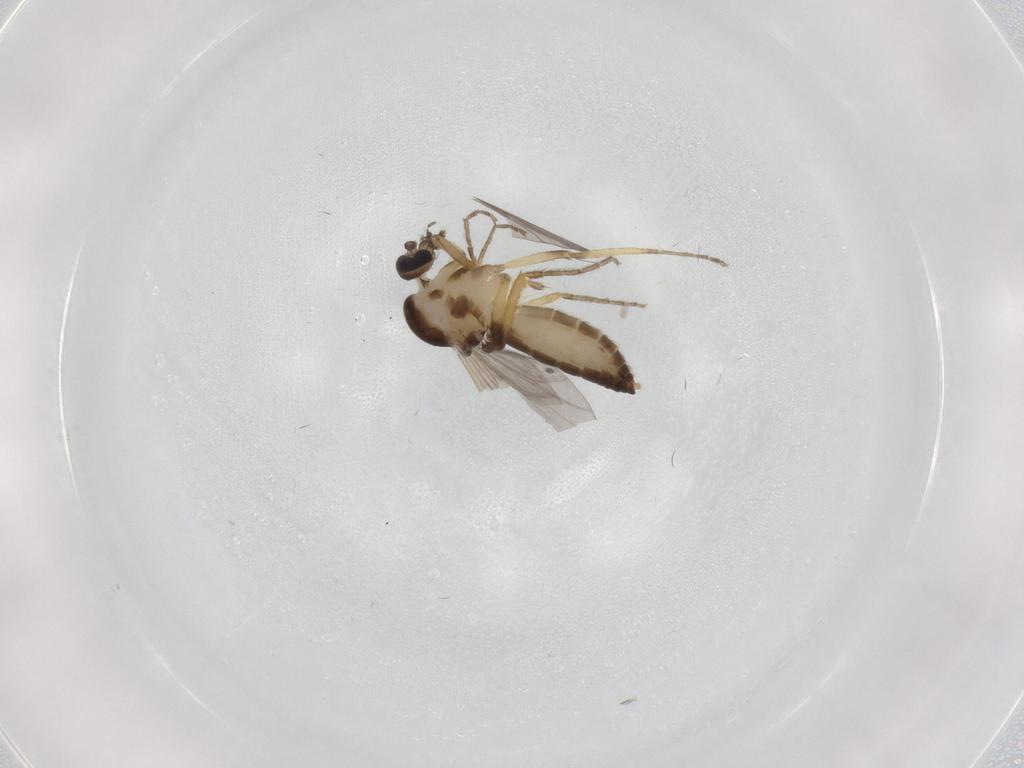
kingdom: Animalia
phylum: Arthropoda
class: Insecta
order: Diptera
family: Ceratopogonidae
